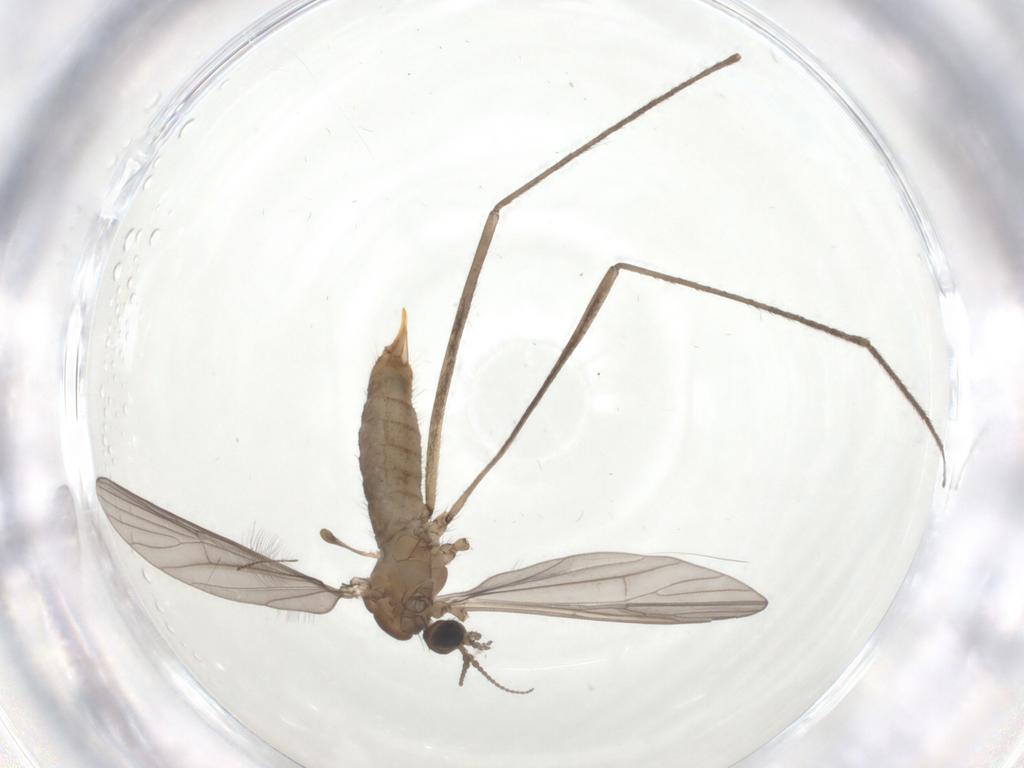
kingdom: Animalia
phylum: Arthropoda
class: Insecta
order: Diptera
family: Limoniidae
